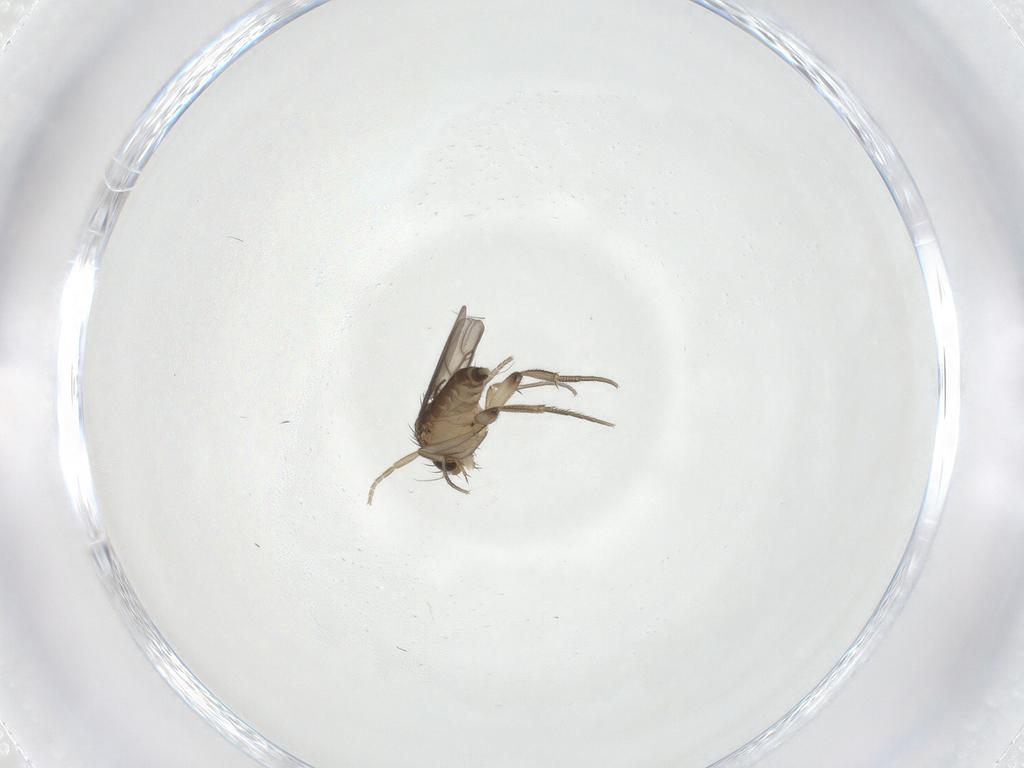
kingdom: Animalia
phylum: Arthropoda
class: Insecta
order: Diptera
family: Phoridae
